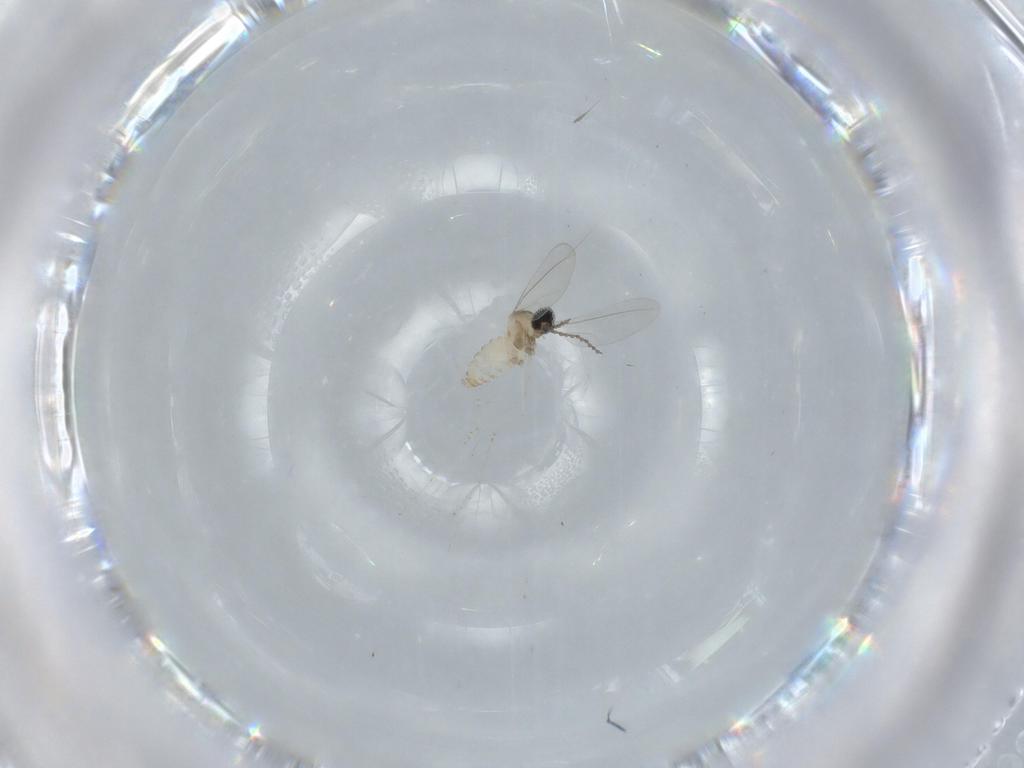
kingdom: Animalia
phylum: Arthropoda
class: Insecta
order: Diptera
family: Cecidomyiidae
